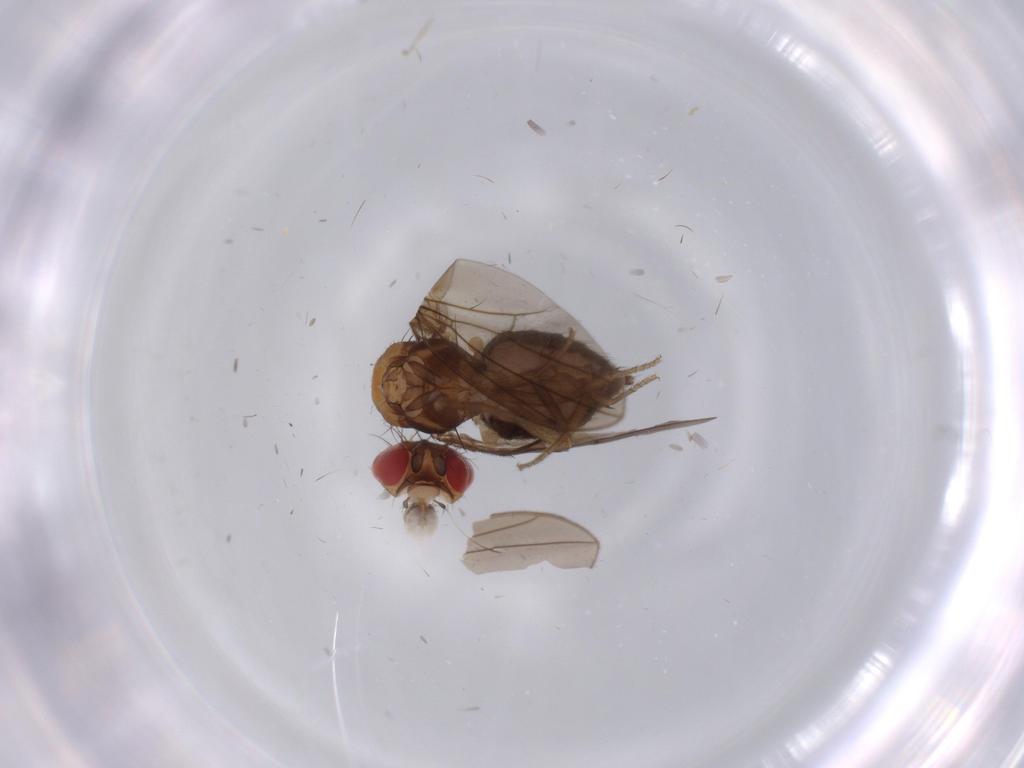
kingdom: Animalia
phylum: Arthropoda
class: Insecta
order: Diptera
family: Drosophilidae
